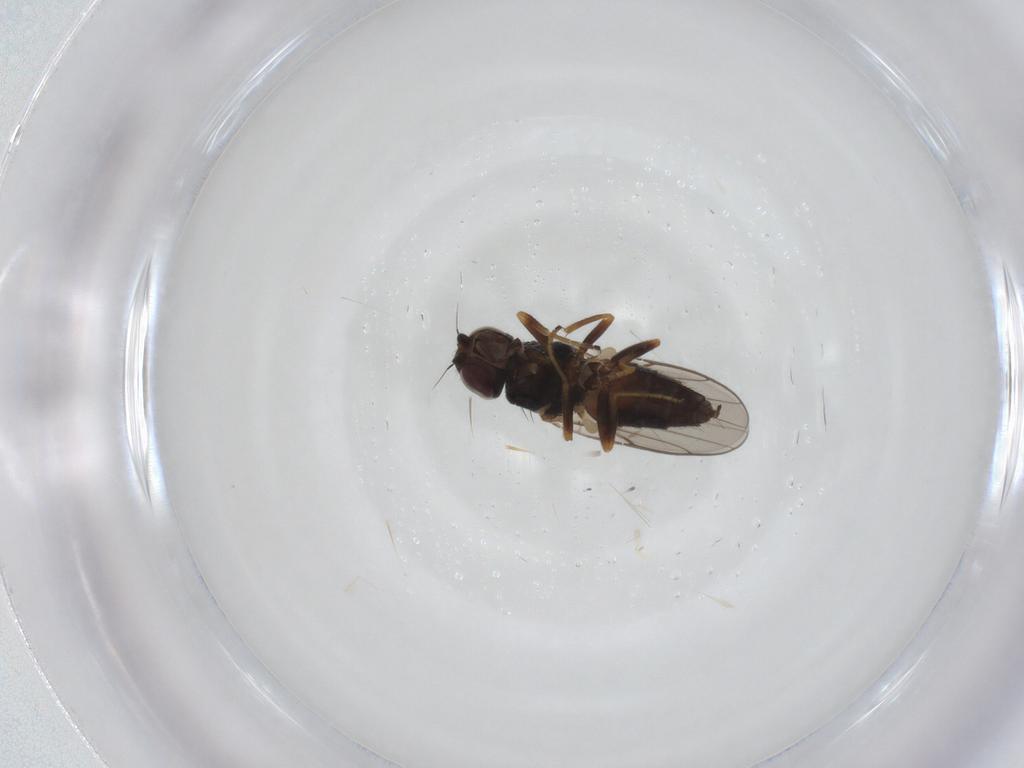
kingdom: Animalia
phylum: Arthropoda
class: Insecta
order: Diptera
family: Chloropidae
